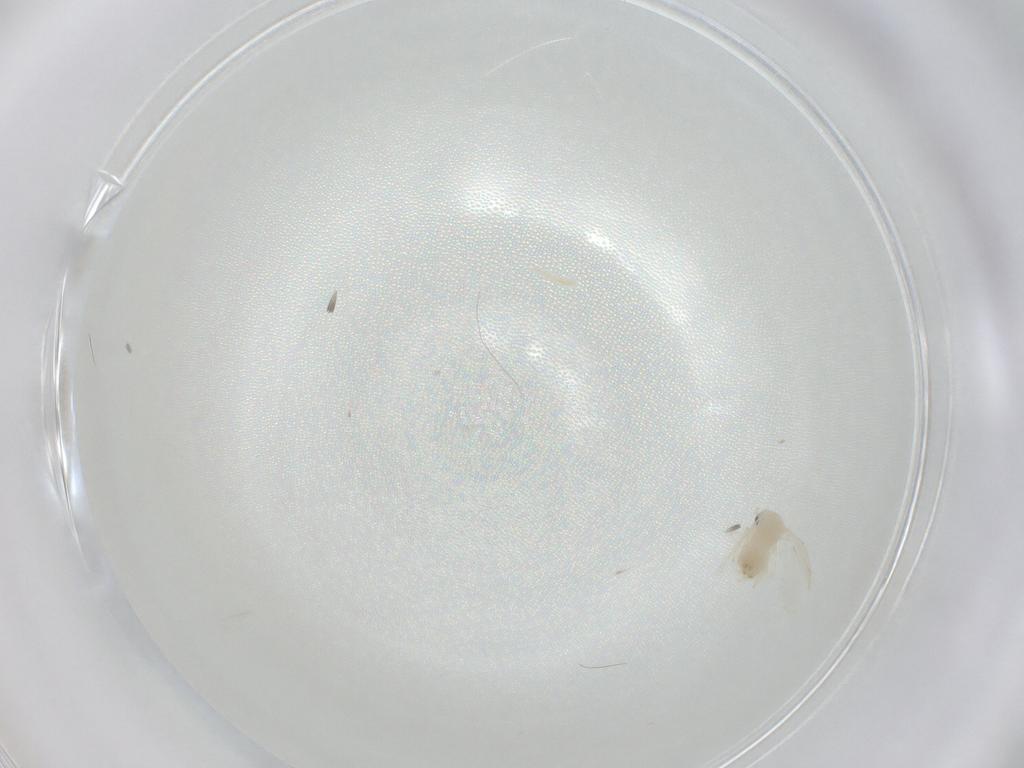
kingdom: Animalia
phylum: Arthropoda
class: Insecta
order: Hemiptera
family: Aleyrodidae
